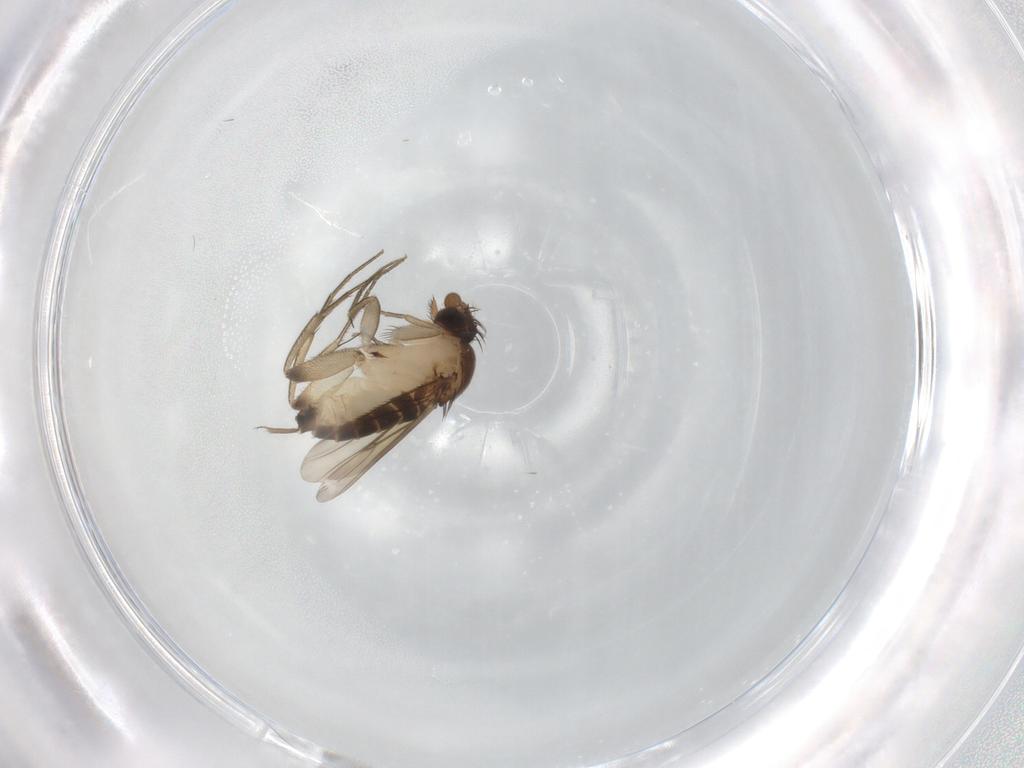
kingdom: Animalia
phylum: Arthropoda
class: Insecta
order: Diptera
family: Phoridae
